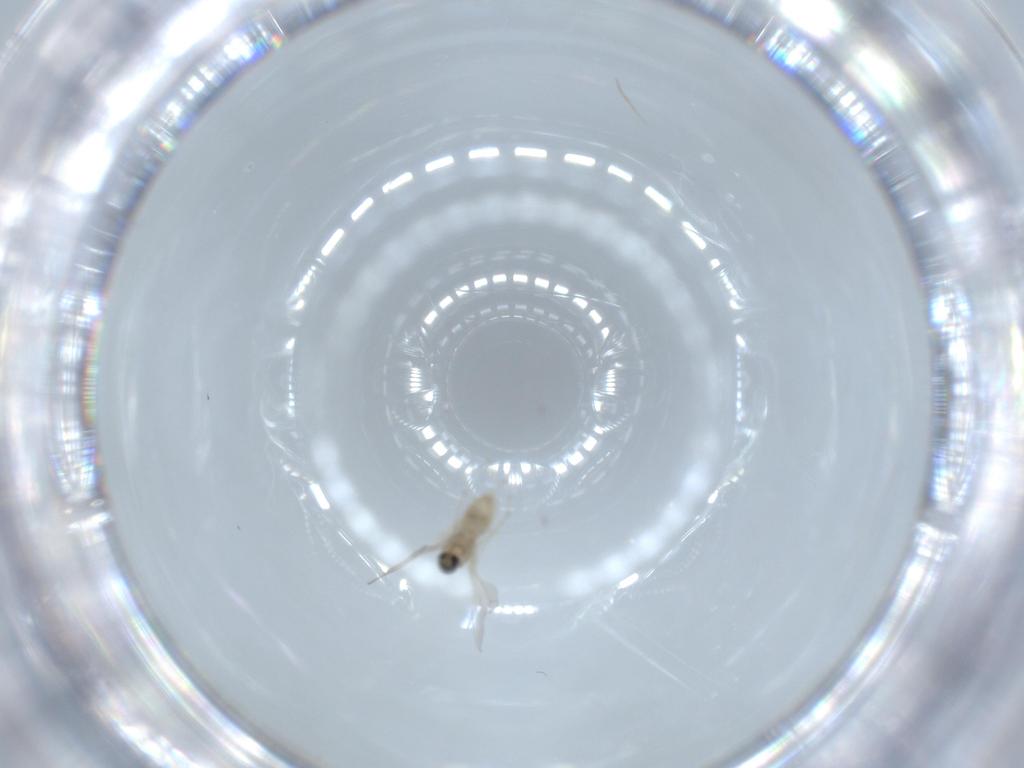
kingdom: Animalia
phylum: Arthropoda
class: Insecta
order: Diptera
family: Cecidomyiidae
